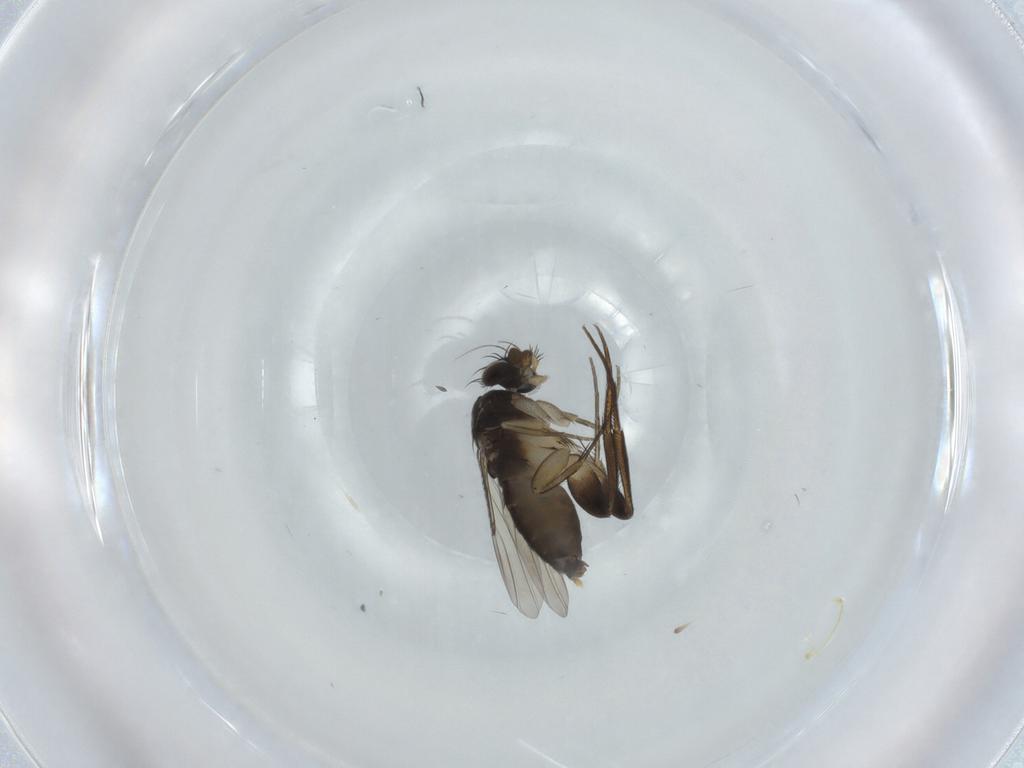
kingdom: Animalia
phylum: Arthropoda
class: Insecta
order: Diptera
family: Phoridae
